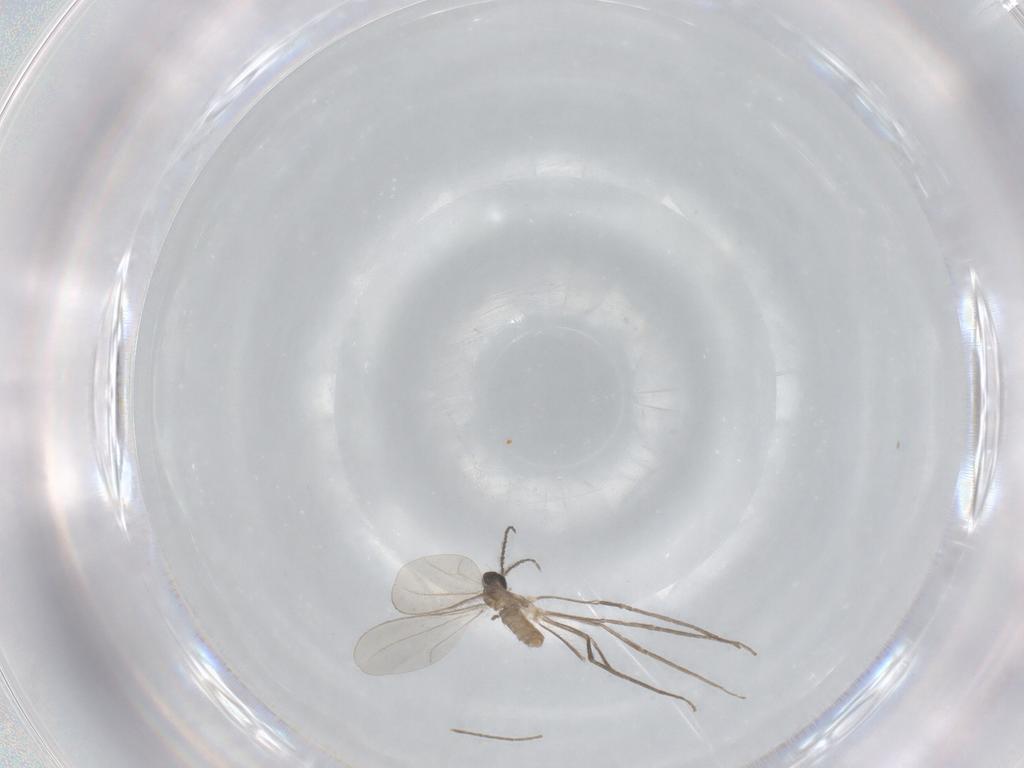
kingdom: Animalia
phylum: Arthropoda
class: Insecta
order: Diptera
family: Cecidomyiidae
